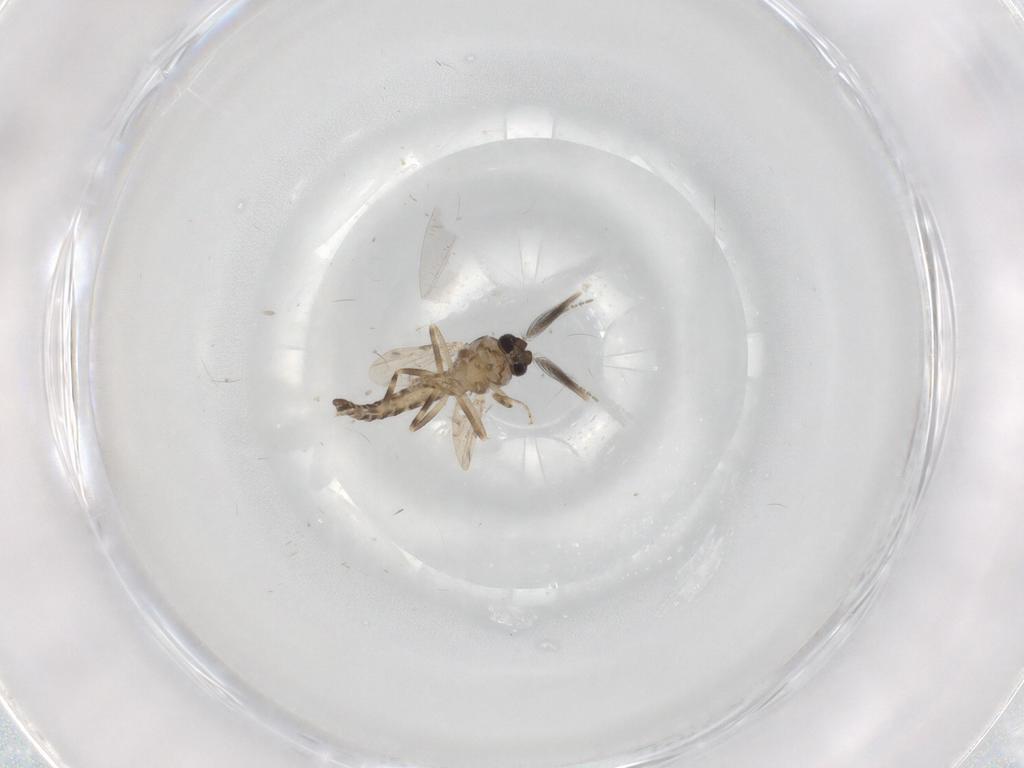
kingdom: Animalia
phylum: Arthropoda
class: Insecta
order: Diptera
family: Ceratopogonidae
